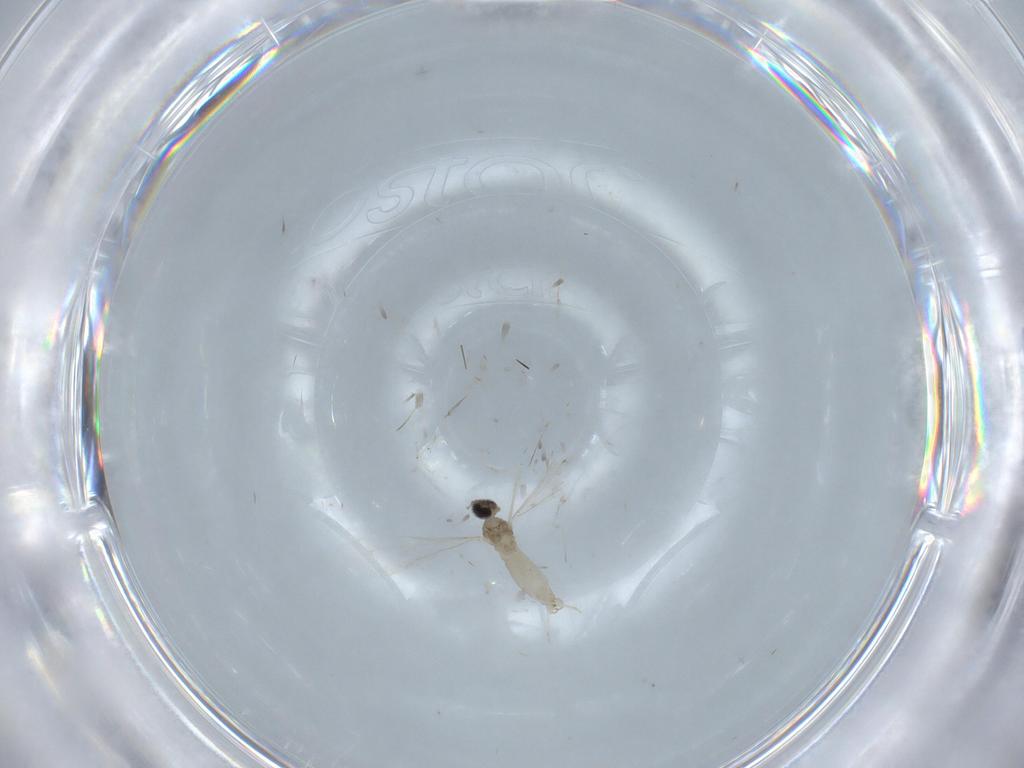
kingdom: Animalia
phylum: Arthropoda
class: Insecta
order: Diptera
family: Cecidomyiidae
